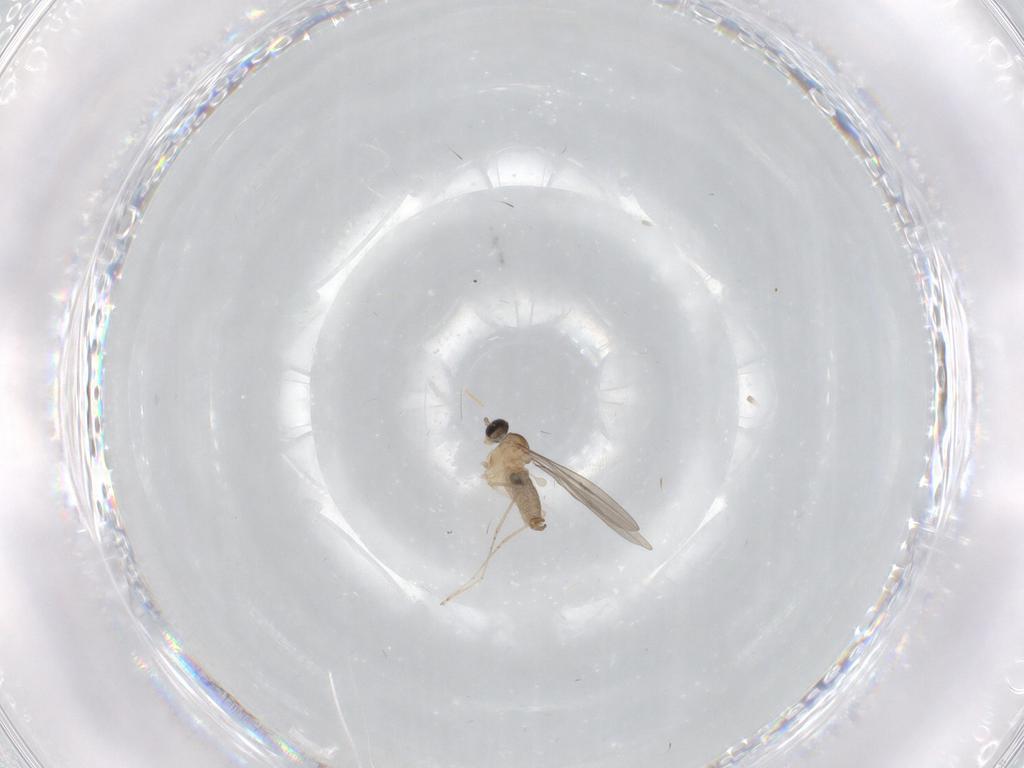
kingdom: Animalia
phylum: Arthropoda
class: Insecta
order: Diptera
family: Cecidomyiidae
